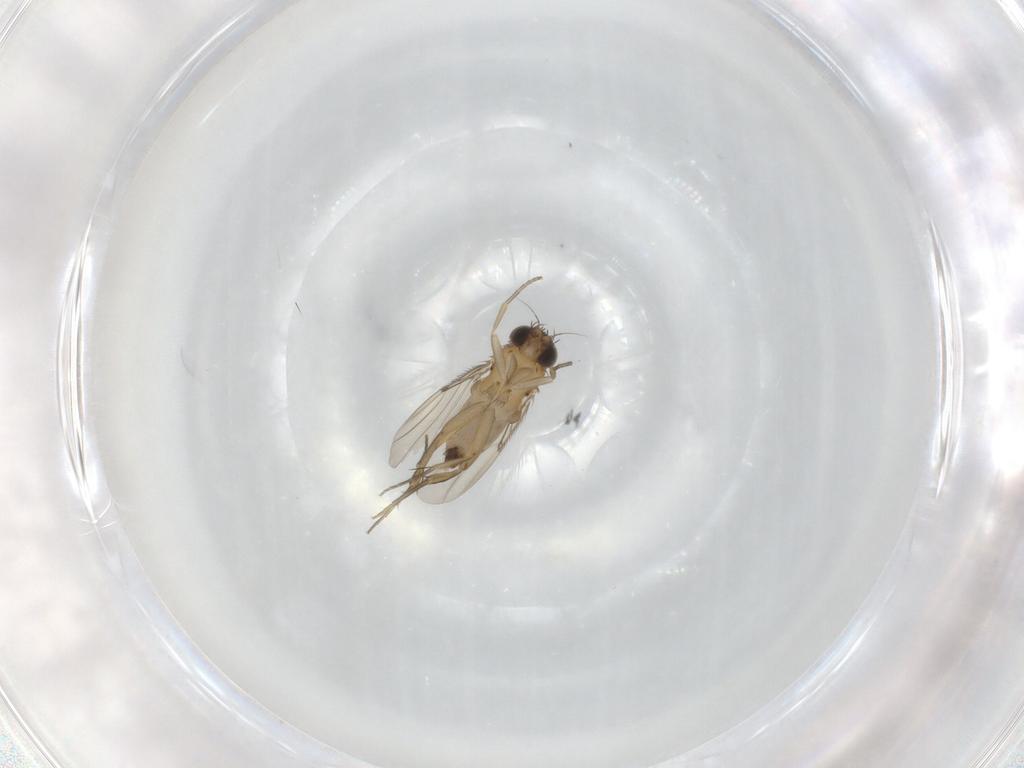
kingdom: Animalia
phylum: Arthropoda
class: Insecta
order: Diptera
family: Phoridae
